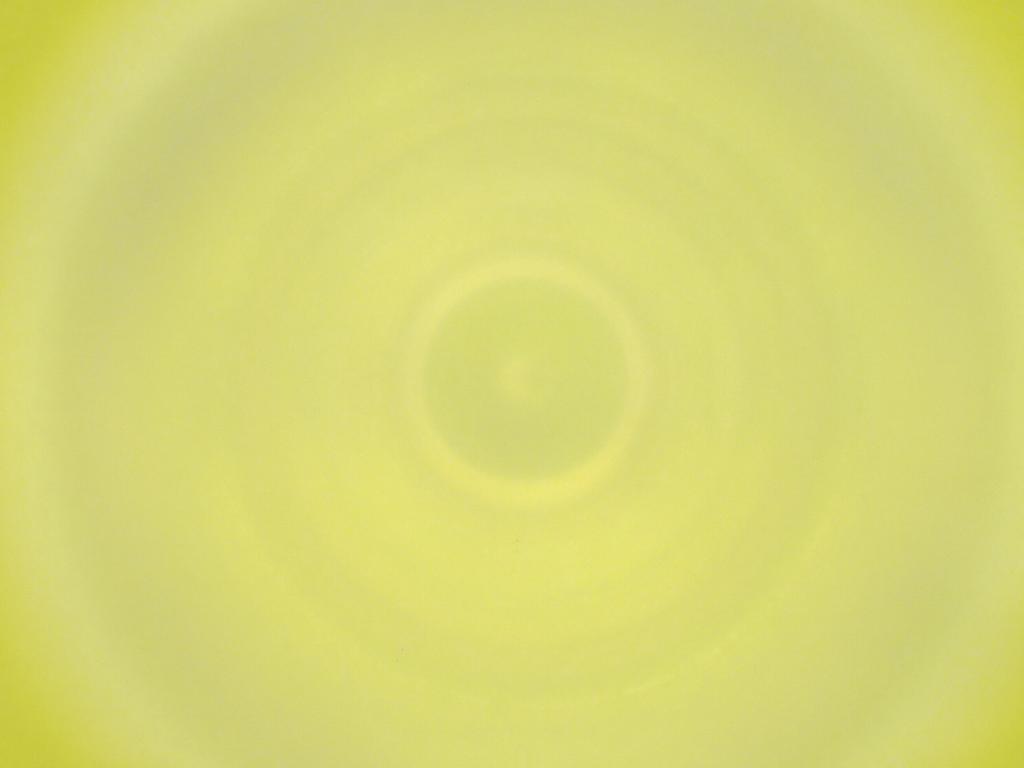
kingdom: Animalia
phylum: Arthropoda
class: Insecta
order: Diptera
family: Cecidomyiidae
